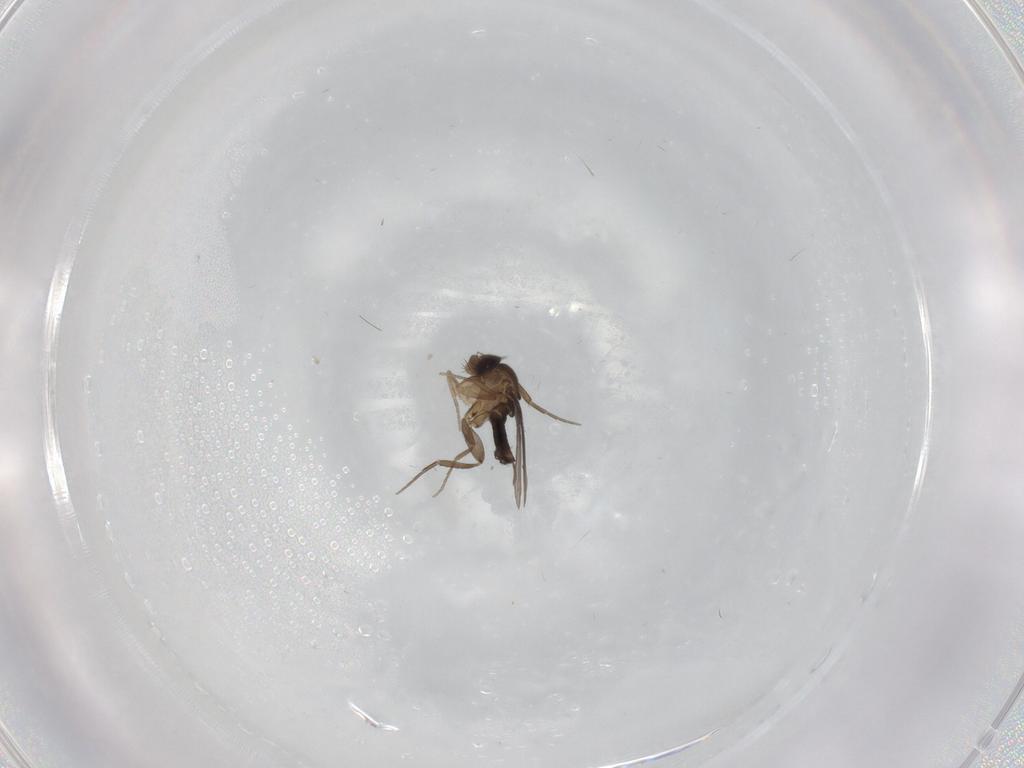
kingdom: Animalia
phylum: Arthropoda
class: Insecta
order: Diptera
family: Phoridae
